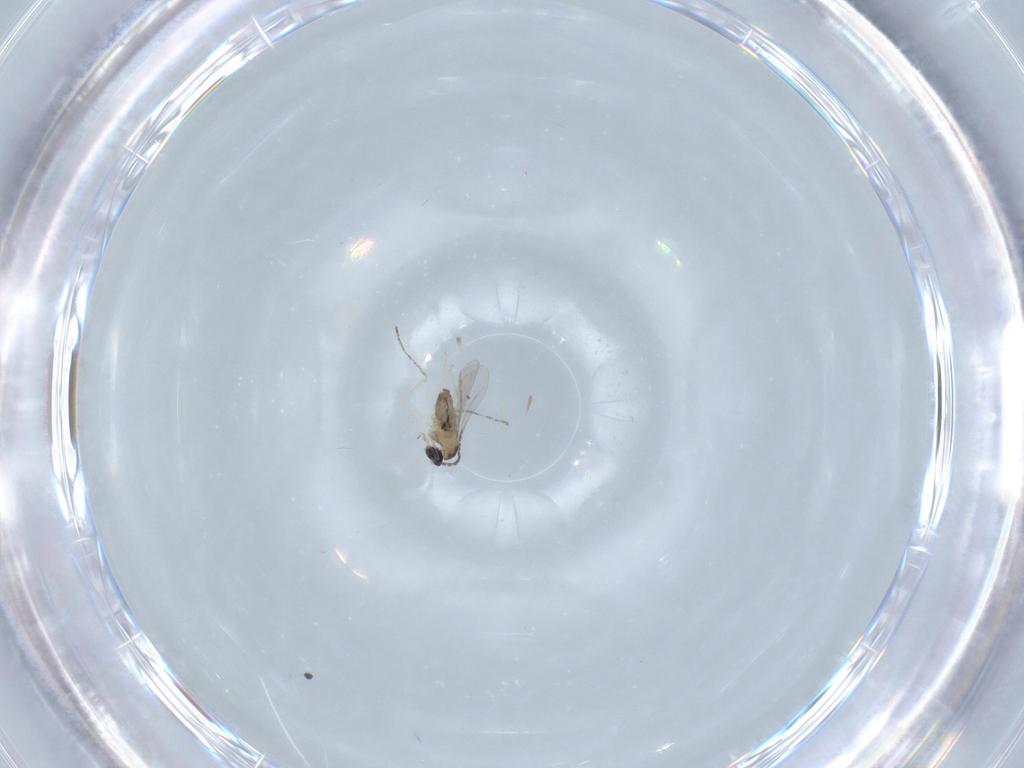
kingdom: Animalia
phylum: Arthropoda
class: Insecta
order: Diptera
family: Cecidomyiidae
